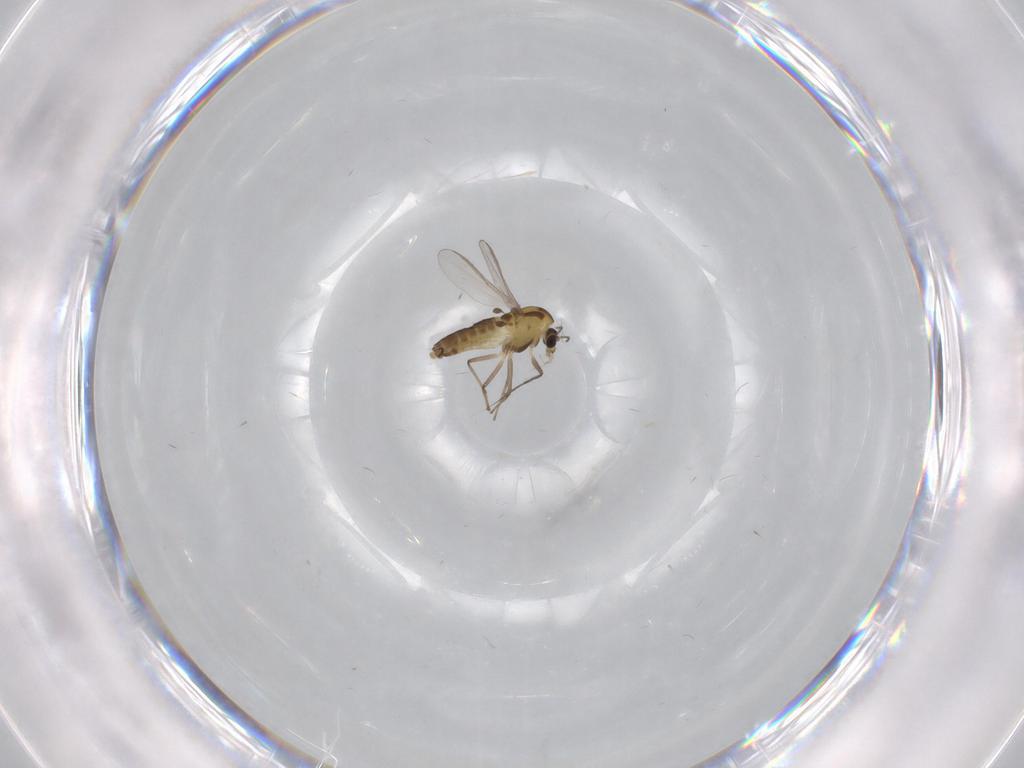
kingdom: Animalia
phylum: Arthropoda
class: Insecta
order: Diptera
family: Chironomidae
